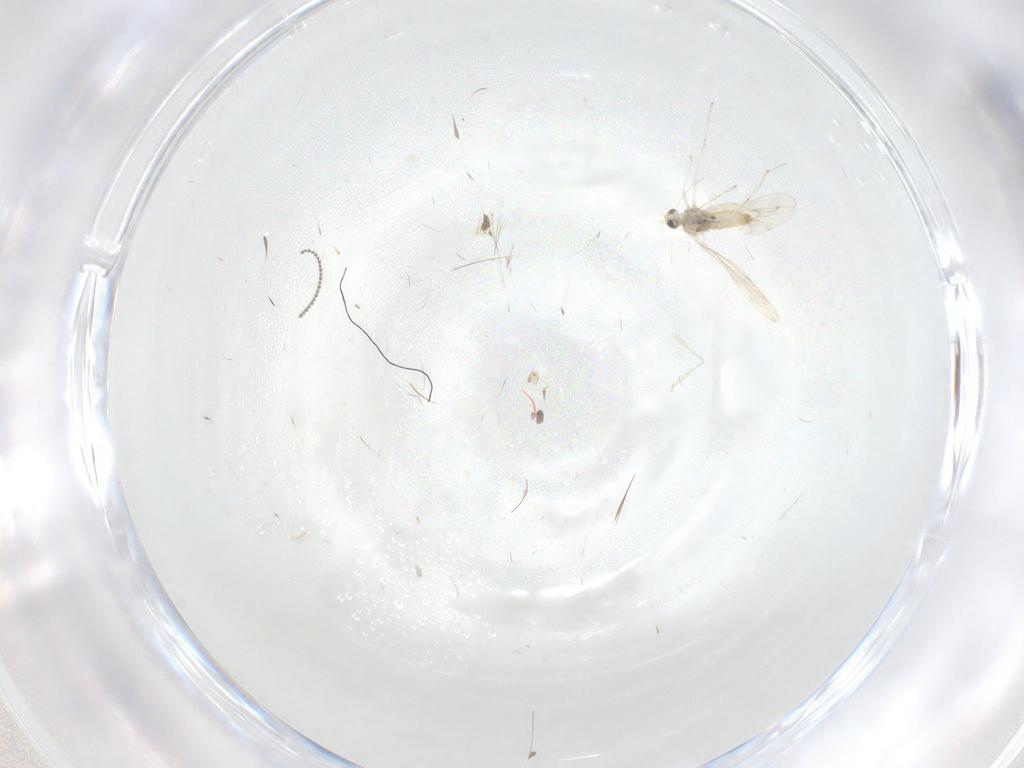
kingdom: Animalia
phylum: Arthropoda
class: Insecta
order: Diptera
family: Cecidomyiidae
